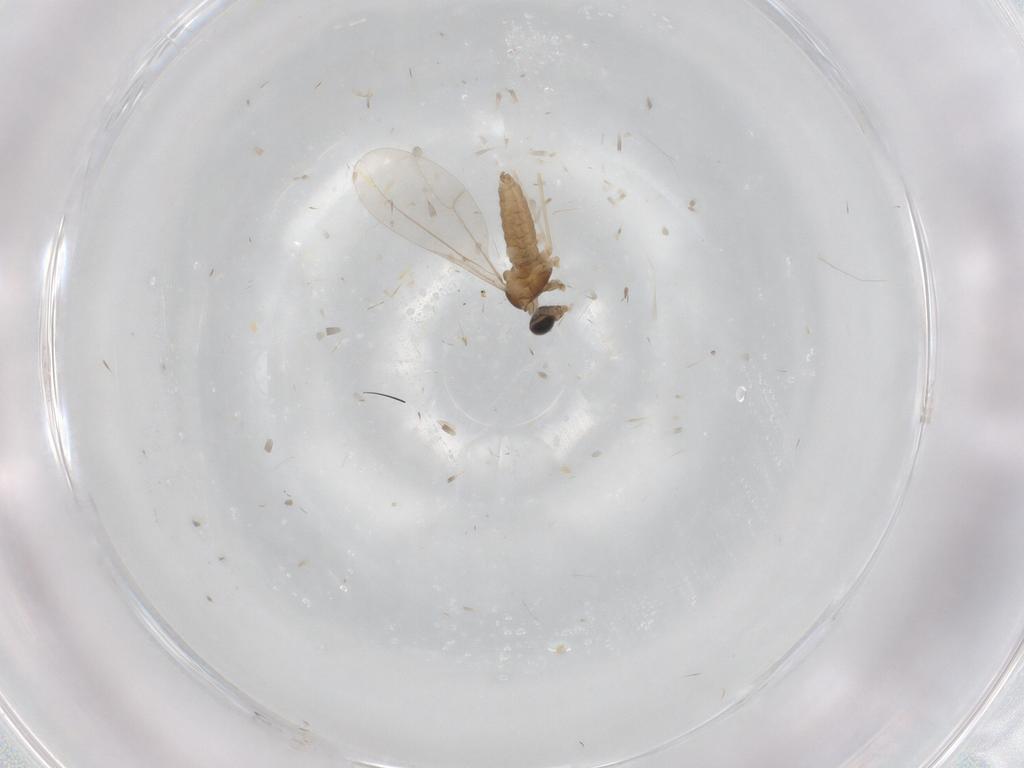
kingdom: Animalia
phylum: Arthropoda
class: Insecta
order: Diptera
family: Cecidomyiidae
